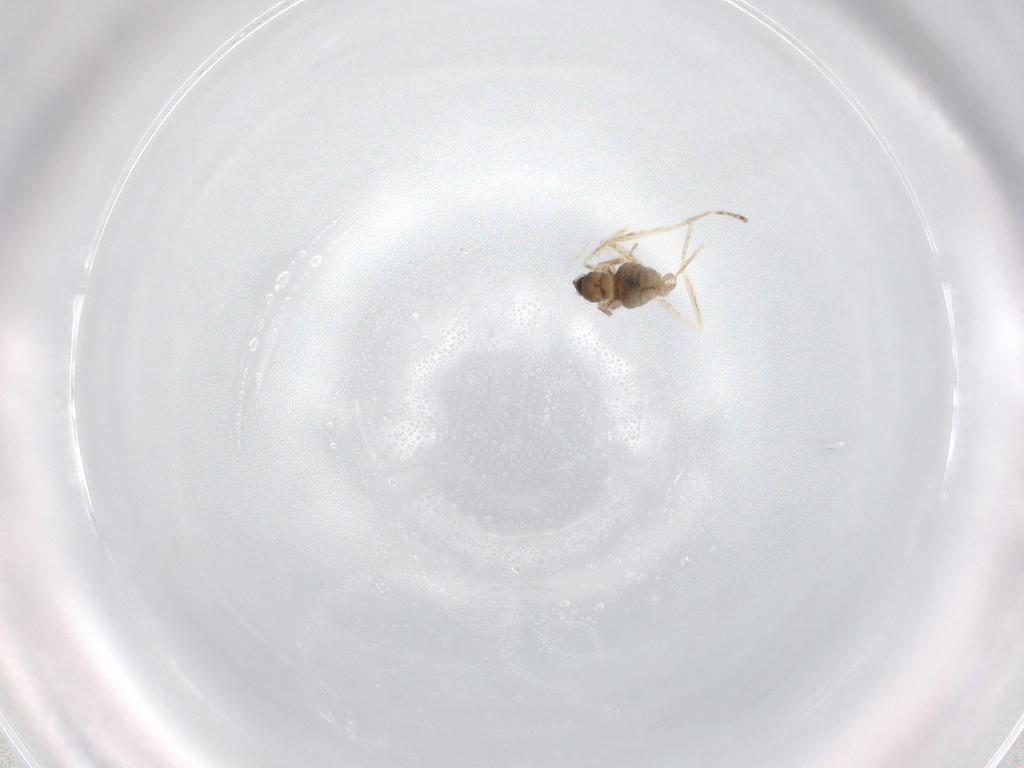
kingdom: Animalia
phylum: Arthropoda
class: Insecta
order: Diptera
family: Cecidomyiidae
